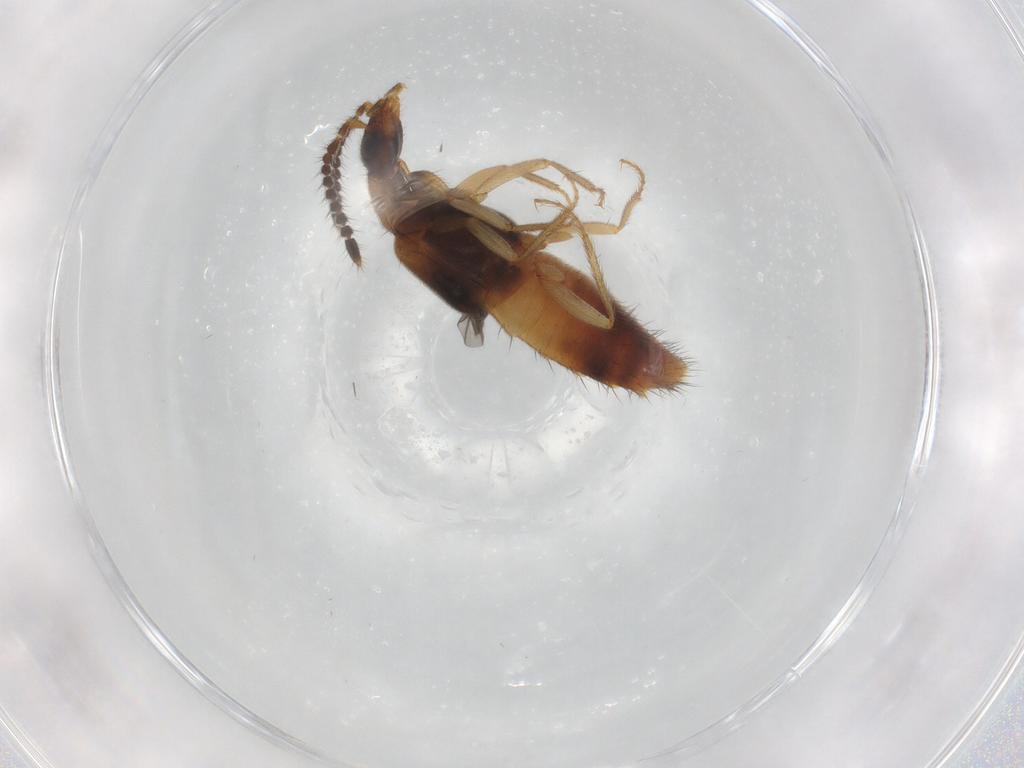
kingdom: Animalia
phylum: Arthropoda
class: Insecta
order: Coleoptera
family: Staphylinidae
